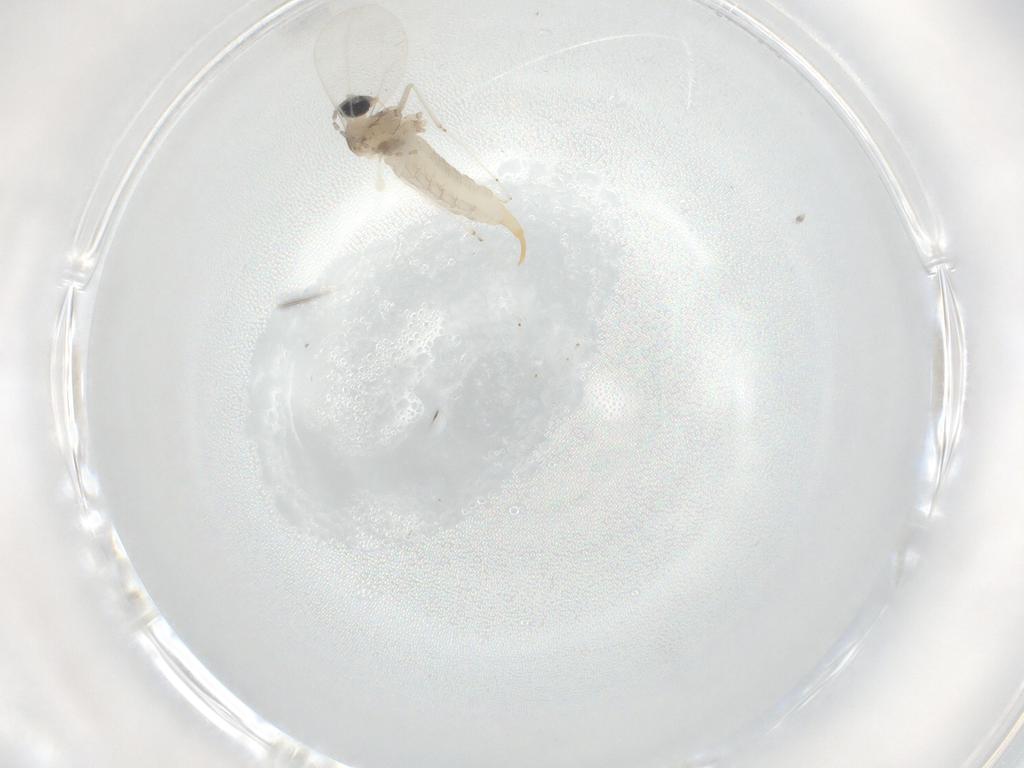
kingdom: Animalia
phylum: Arthropoda
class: Insecta
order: Diptera
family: Cecidomyiidae
